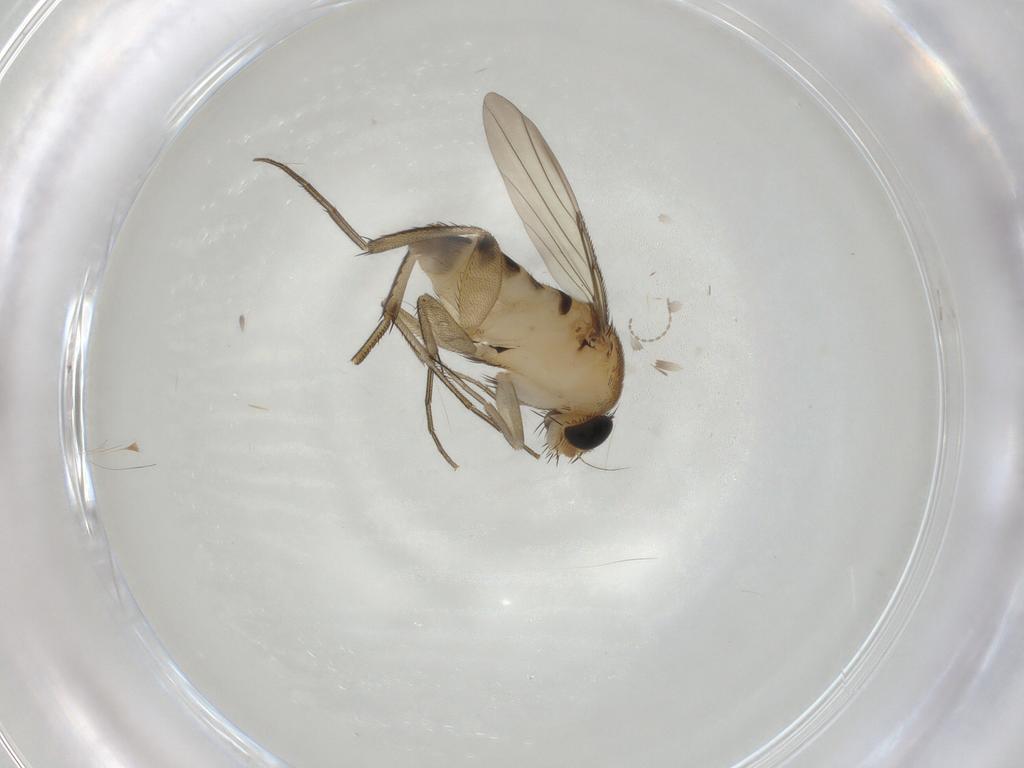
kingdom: Animalia
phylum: Arthropoda
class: Insecta
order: Diptera
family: Phoridae
